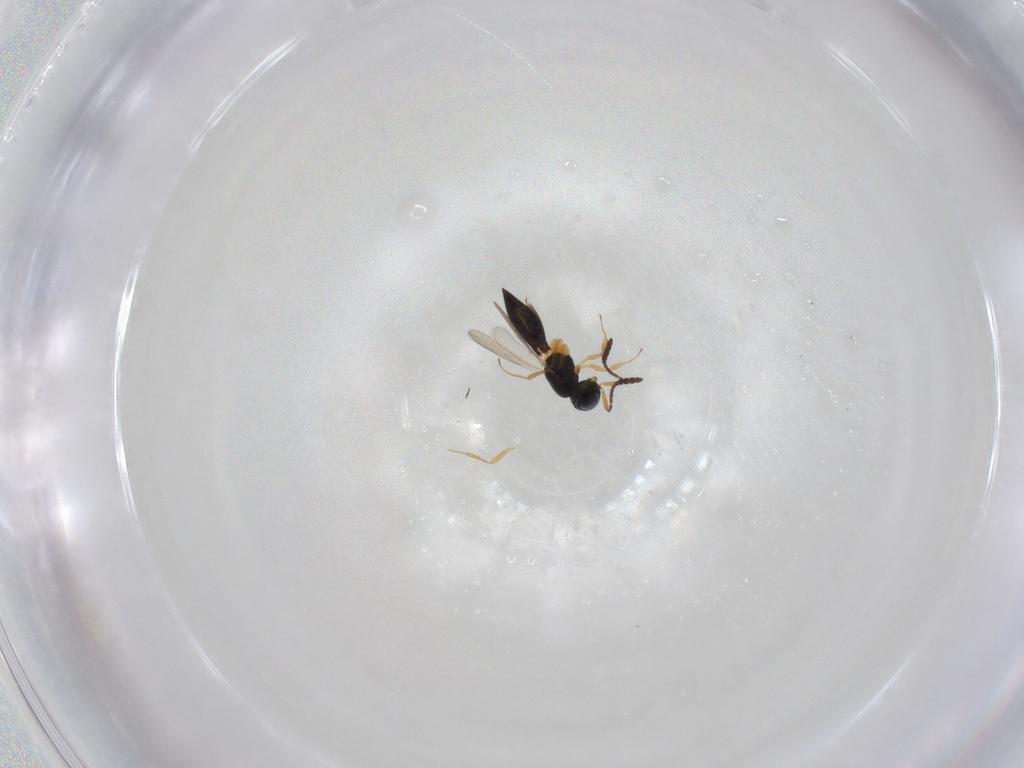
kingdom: Animalia
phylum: Arthropoda
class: Insecta
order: Hymenoptera
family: Scelionidae
